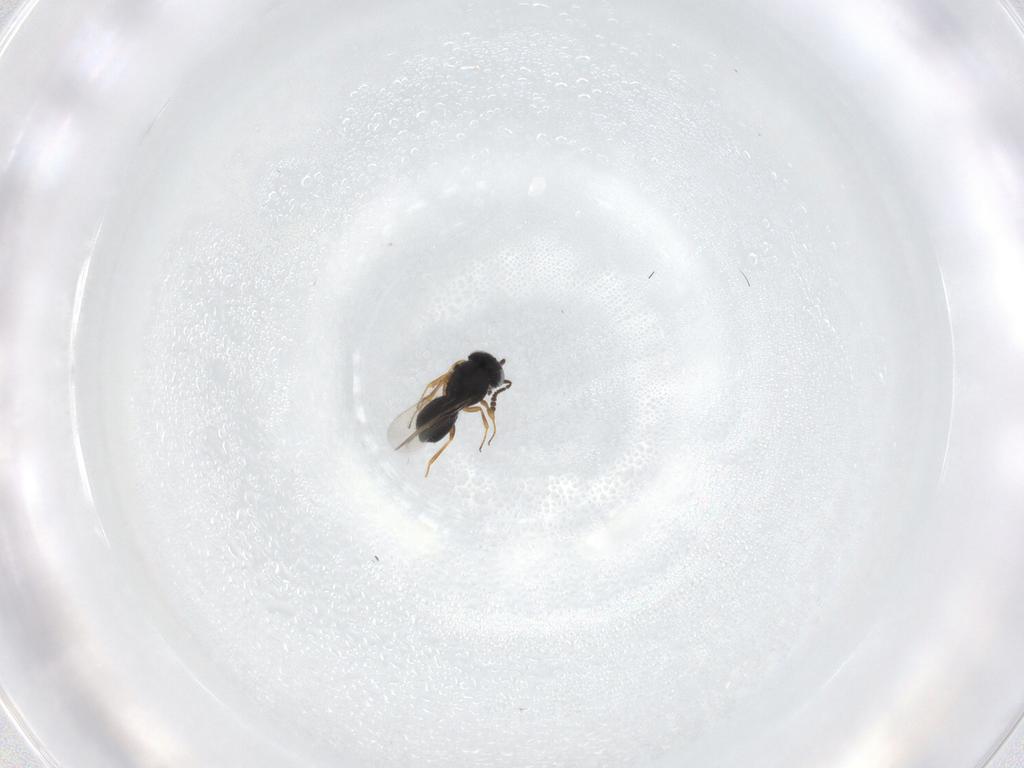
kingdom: Animalia
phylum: Arthropoda
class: Insecta
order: Hymenoptera
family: Scelionidae
